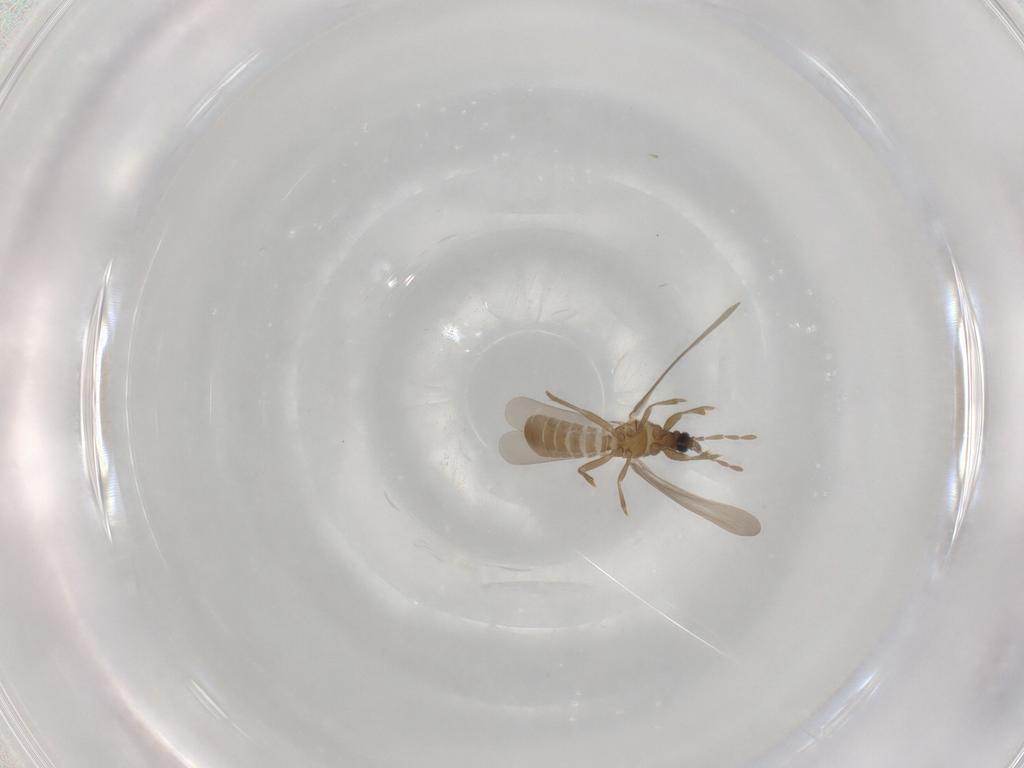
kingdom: Animalia
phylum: Arthropoda
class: Insecta
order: Hemiptera
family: Enicocephalidae
